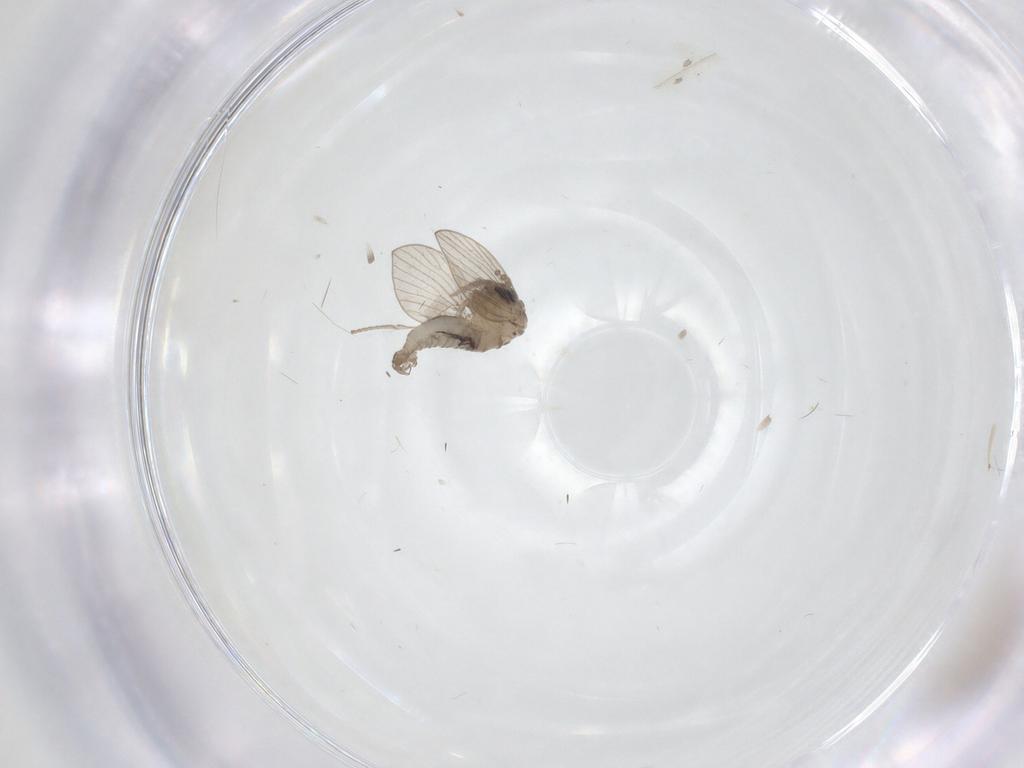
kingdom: Animalia
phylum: Arthropoda
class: Insecta
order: Diptera
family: Psychodidae
